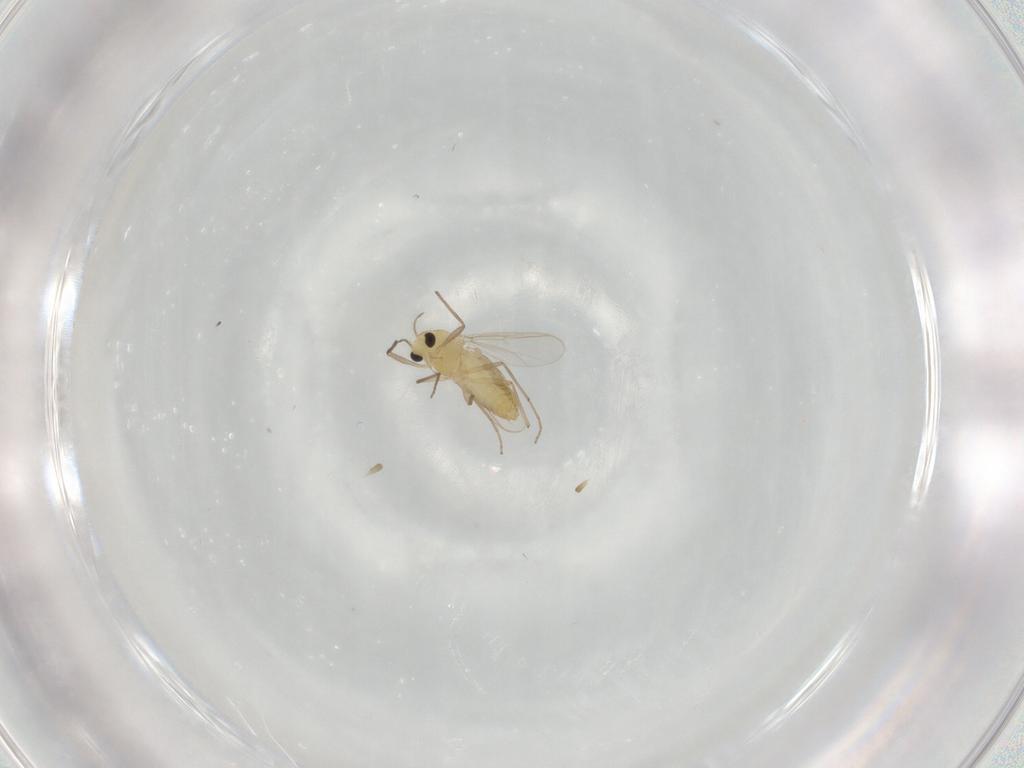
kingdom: Animalia
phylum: Arthropoda
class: Insecta
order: Diptera
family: Chironomidae
